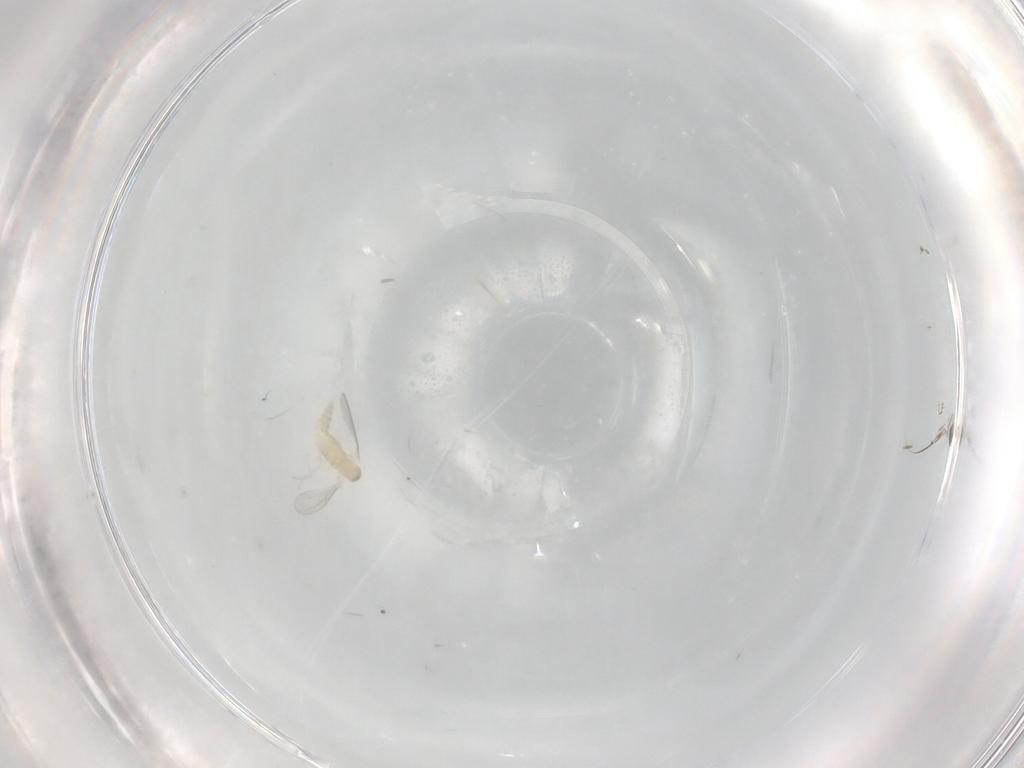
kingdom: Animalia
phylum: Arthropoda
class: Insecta
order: Diptera
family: Cecidomyiidae
